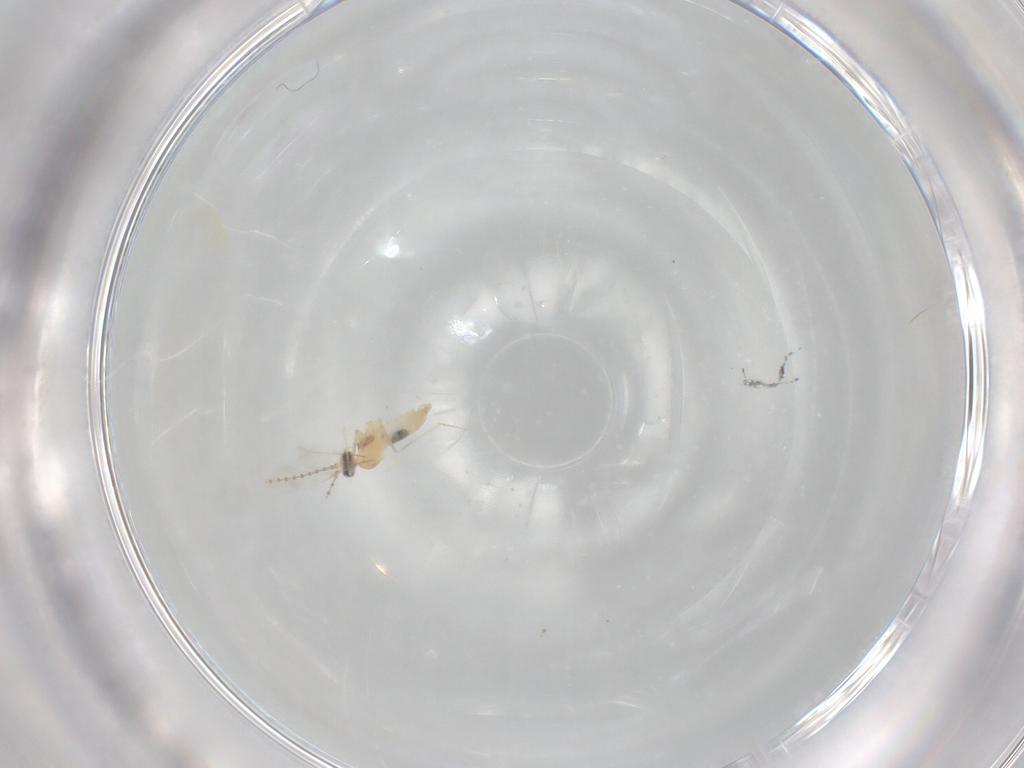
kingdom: Animalia
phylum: Arthropoda
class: Insecta
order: Diptera
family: Cecidomyiidae
